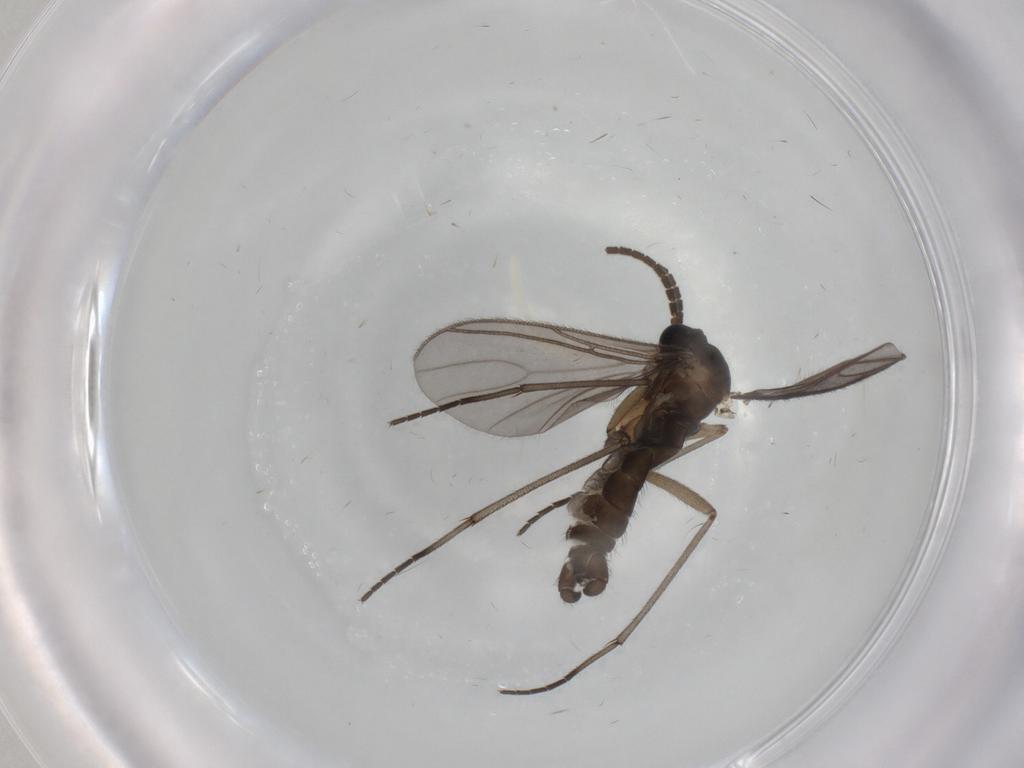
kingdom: Animalia
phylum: Arthropoda
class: Insecta
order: Diptera
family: Sciaridae
